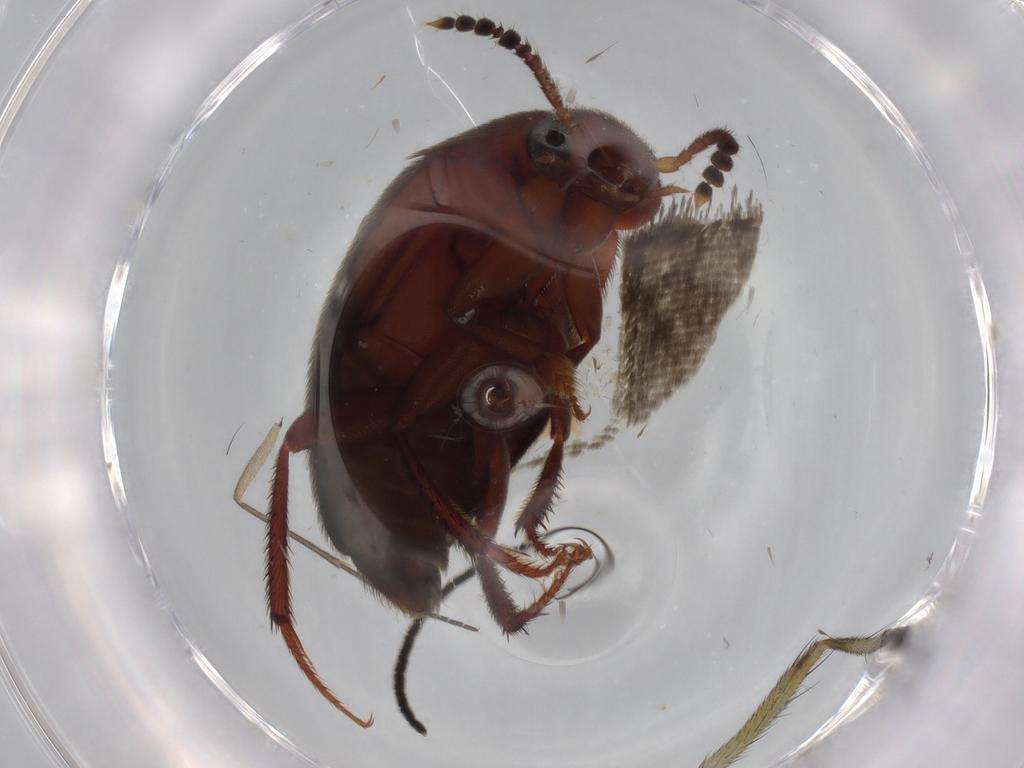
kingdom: Animalia
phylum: Arthropoda
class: Insecta
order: Coleoptera
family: Leiodidae
